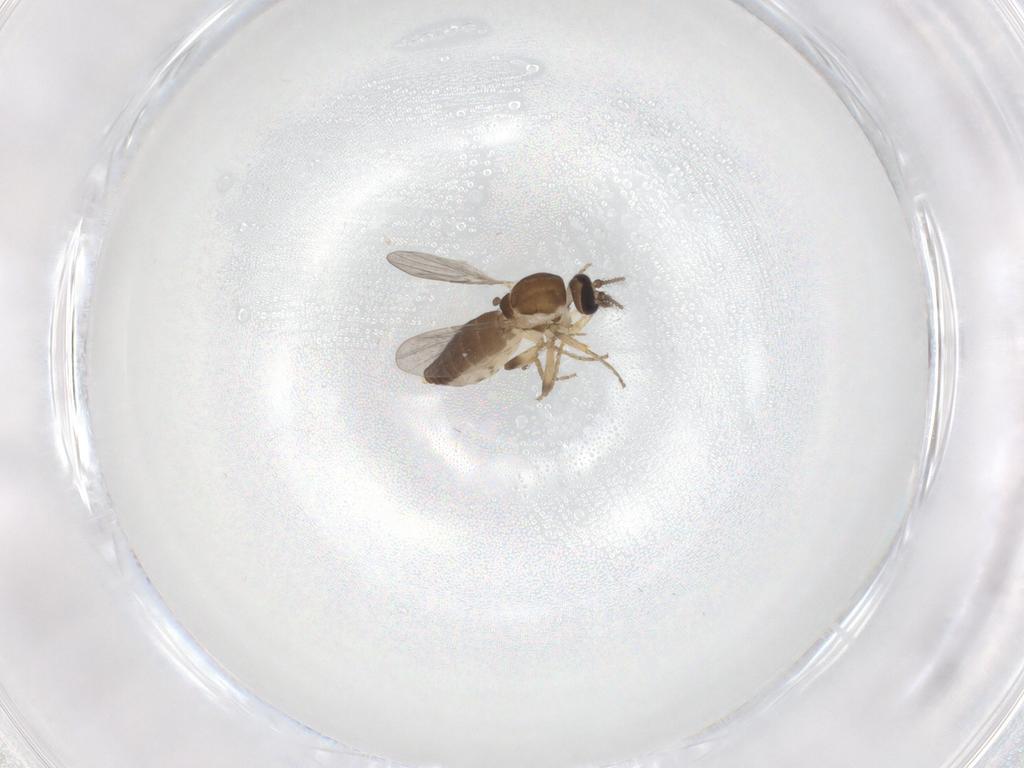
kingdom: Animalia
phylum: Arthropoda
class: Insecta
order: Diptera
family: Ceratopogonidae
